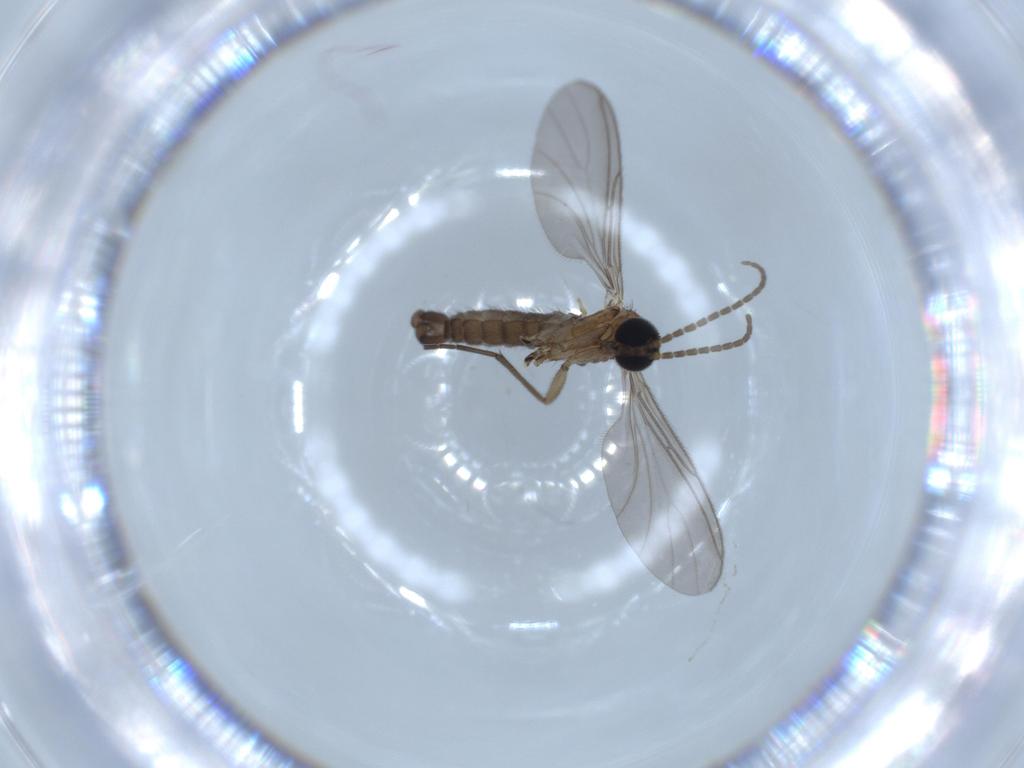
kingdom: Animalia
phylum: Arthropoda
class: Insecta
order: Diptera
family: Sciaridae
